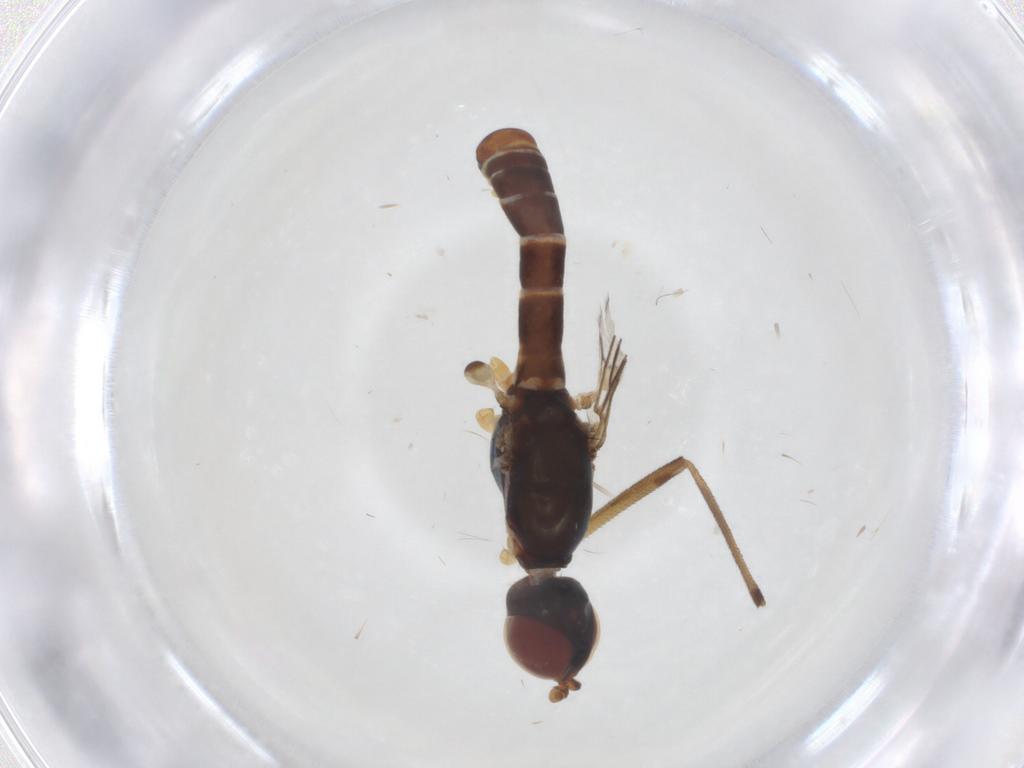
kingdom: Animalia
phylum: Arthropoda
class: Insecta
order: Diptera
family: Micropezidae
